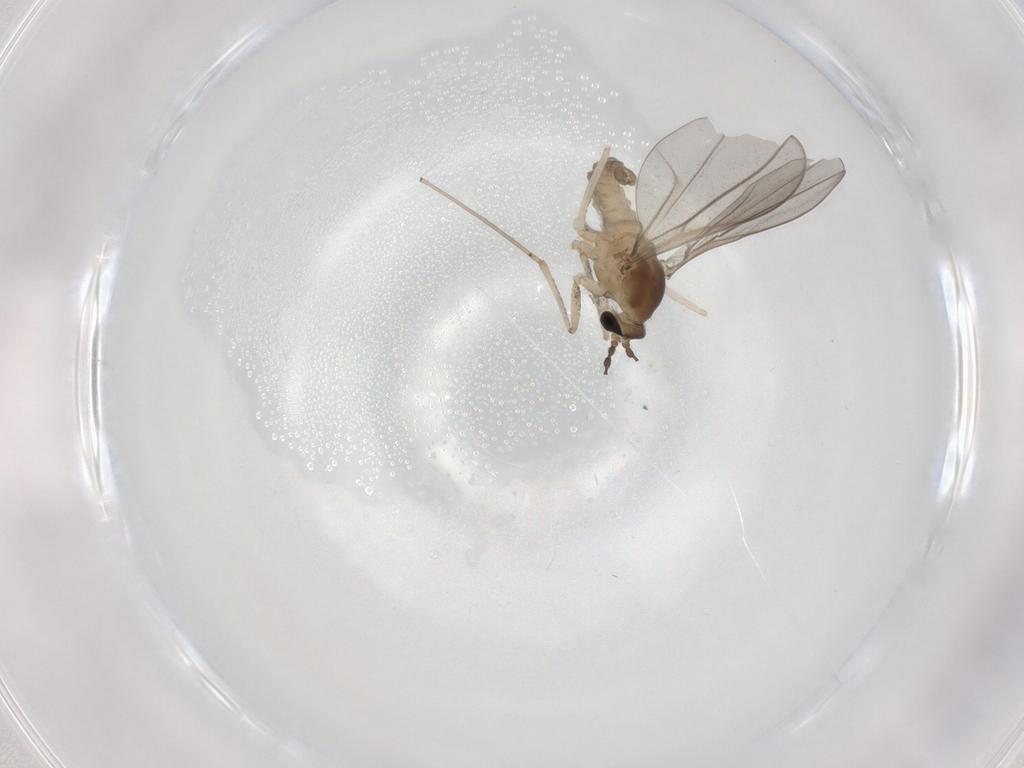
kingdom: Animalia
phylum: Arthropoda
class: Insecta
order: Diptera
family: Cecidomyiidae
